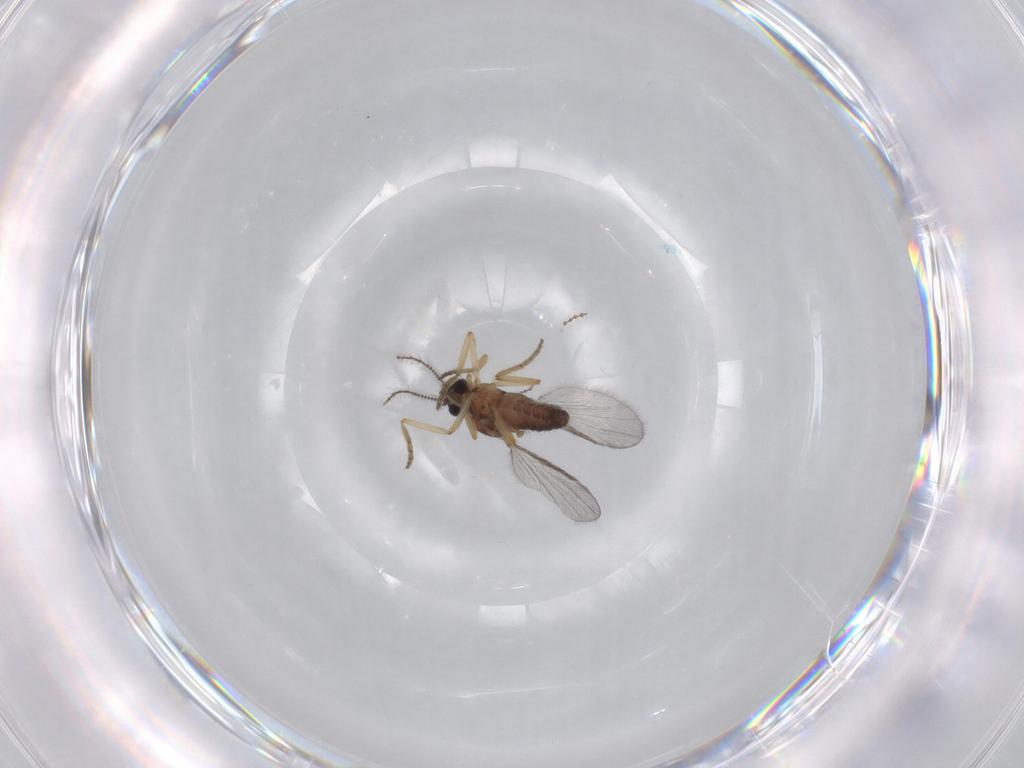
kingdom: Animalia
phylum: Arthropoda
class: Insecta
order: Diptera
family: Ceratopogonidae
